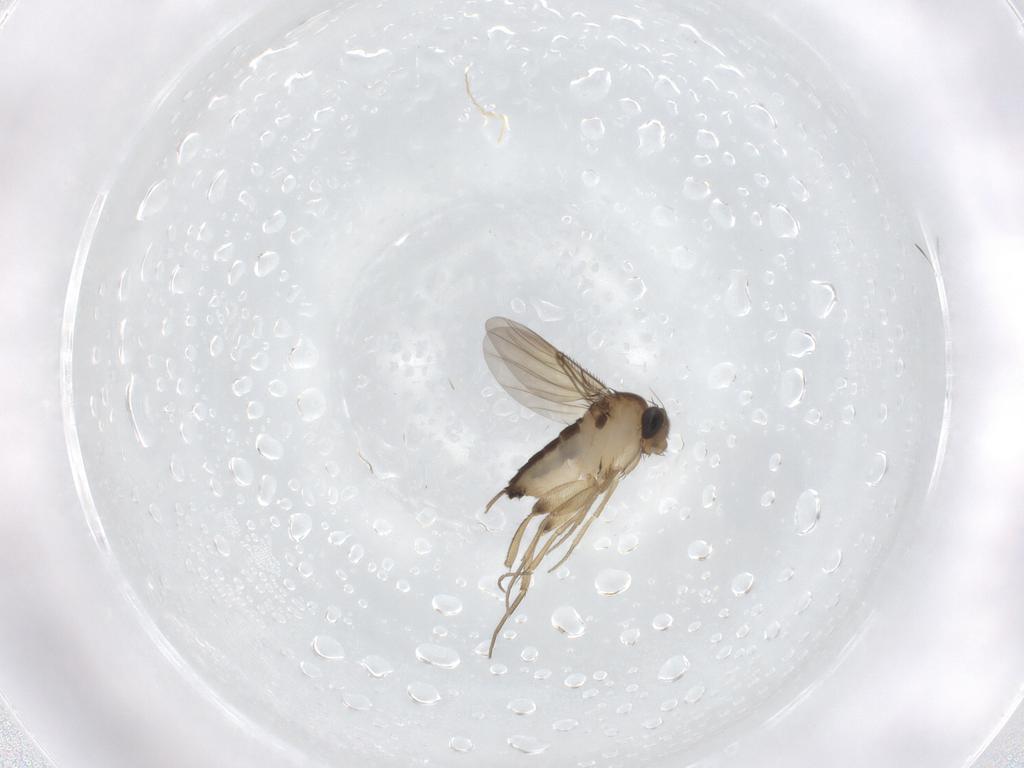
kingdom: Animalia
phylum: Arthropoda
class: Insecta
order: Diptera
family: Phoridae
